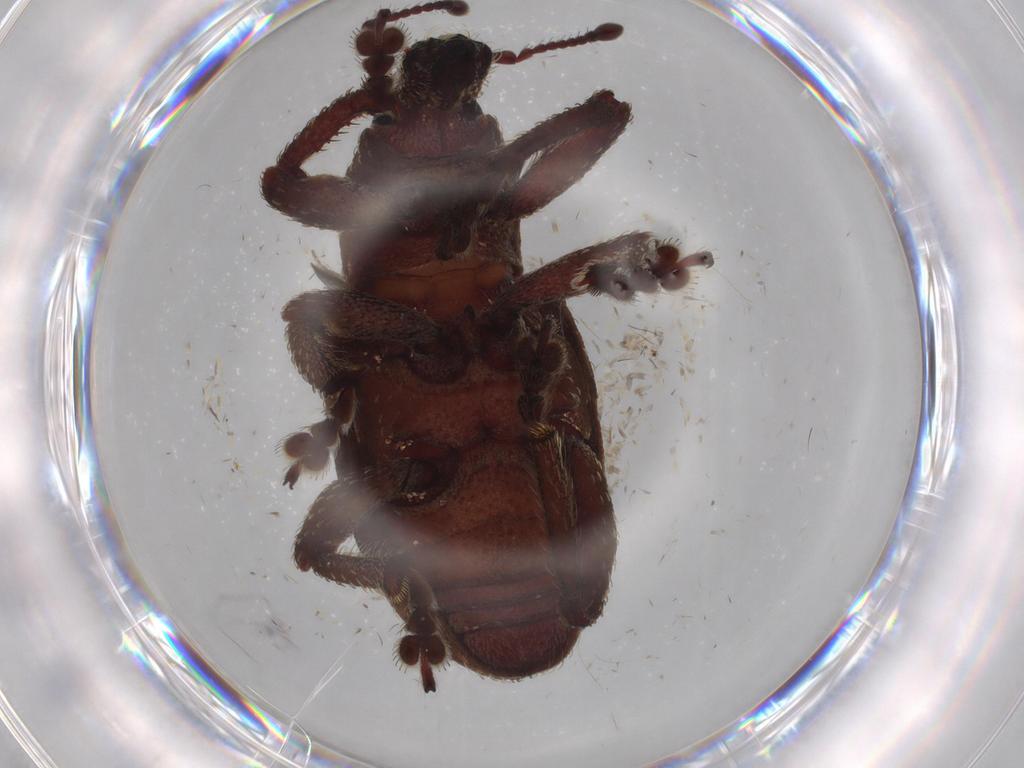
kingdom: Animalia
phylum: Arthropoda
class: Insecta
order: Coleoptera
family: Curculionidae
